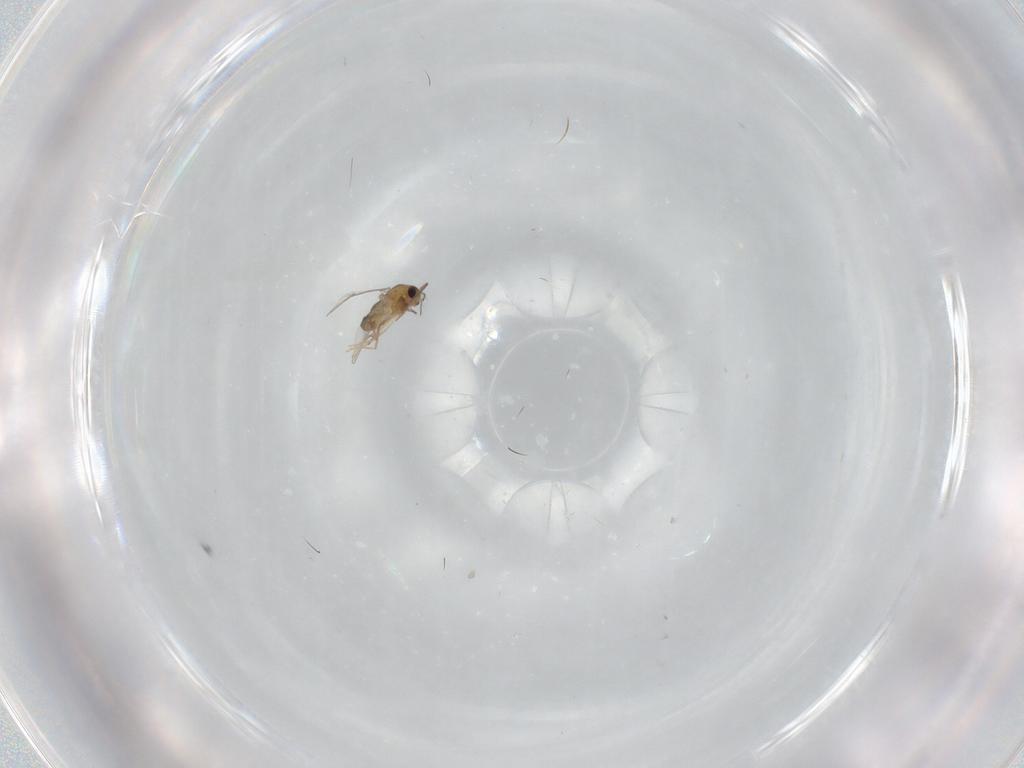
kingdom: Animalia
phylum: Arthropoda
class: Insecta
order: Diptera
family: Chironomidae
